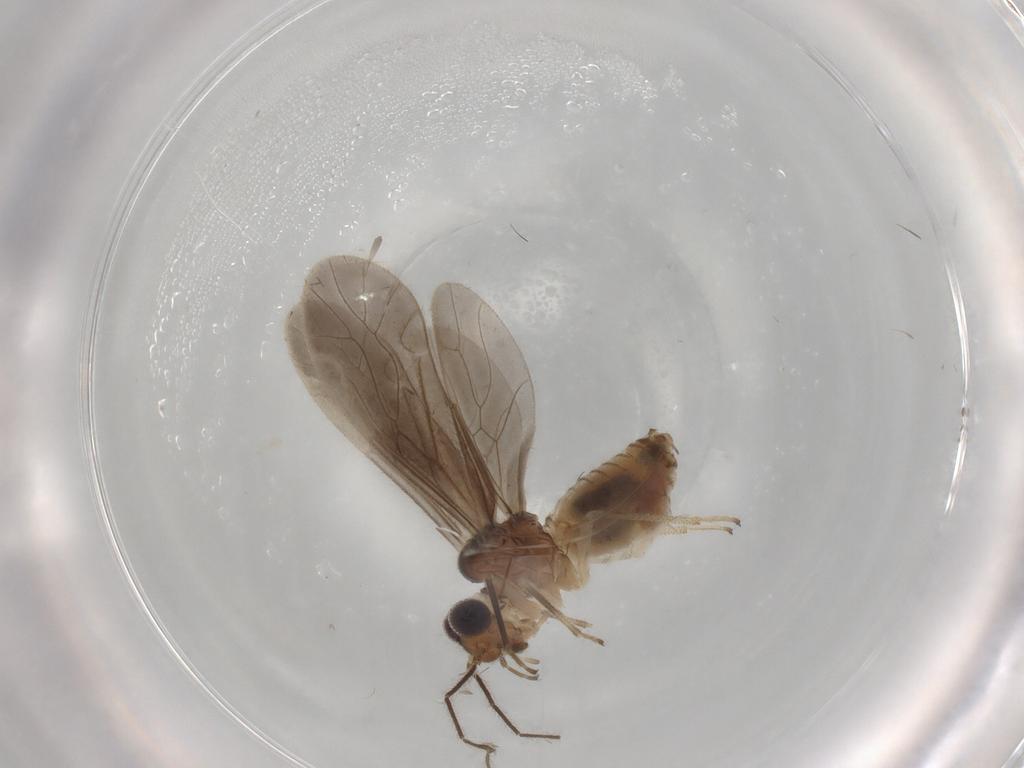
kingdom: Animalia
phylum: Arthropoda
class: Insecta
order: Psocodea
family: Caeciliusidae
